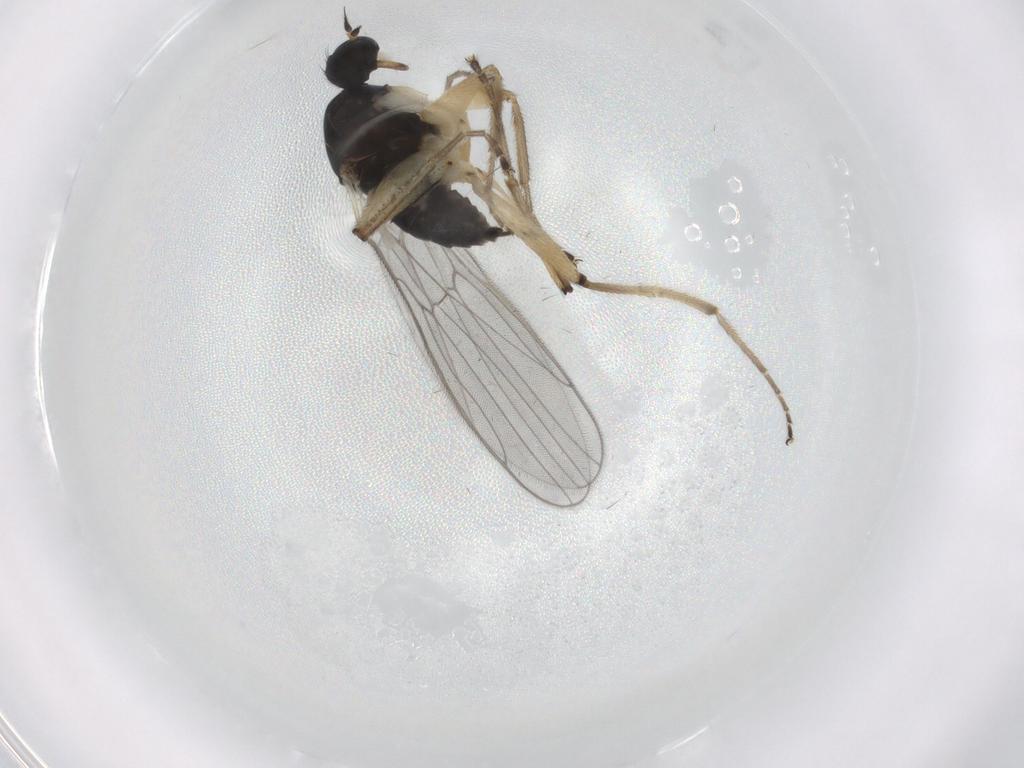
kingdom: Animalia
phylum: Arthropoda
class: Insecta
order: Diptera
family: Hybotidae
